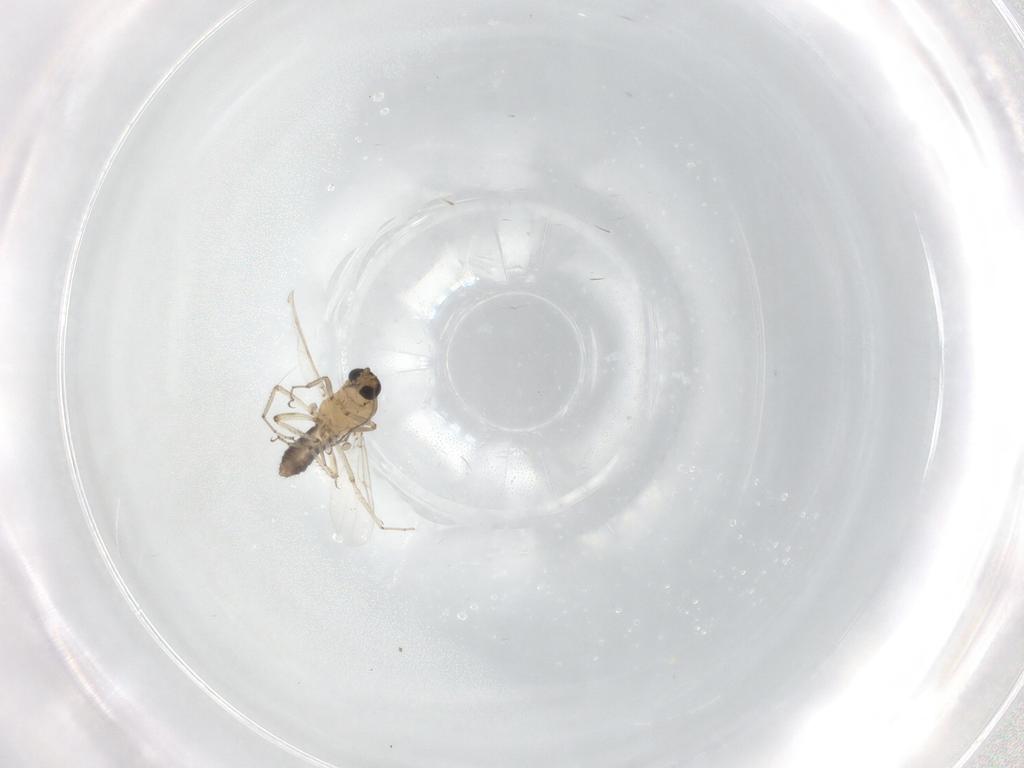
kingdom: Animalia
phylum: Arthropoda
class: Insecta
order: Diptera
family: Ceratopogonidae
